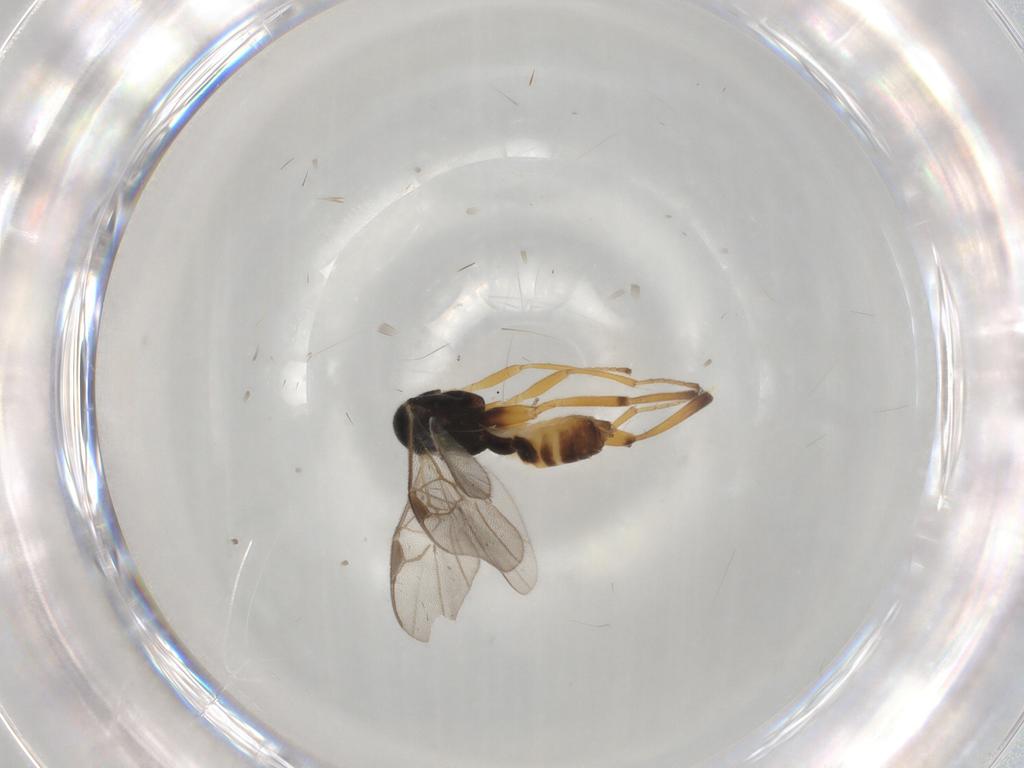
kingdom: Animalia
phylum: Arthropoda
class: Insecta
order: Hymenoptera
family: Braconidae
